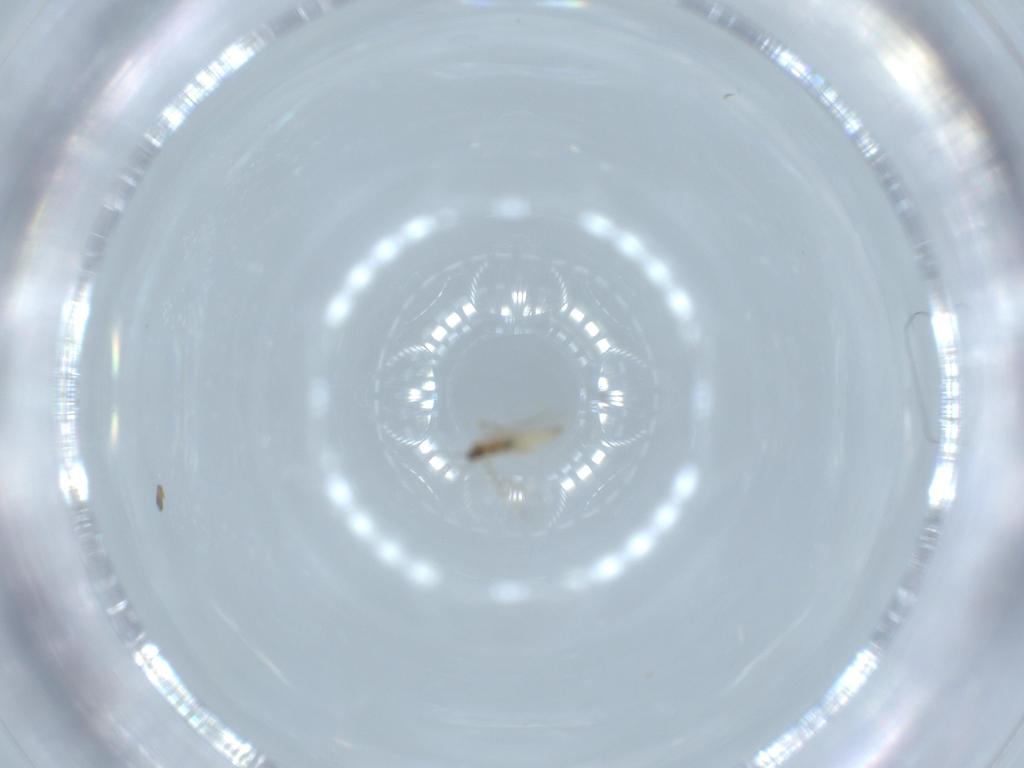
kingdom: Animalia
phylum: Arthropoda
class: Insecta
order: Diptera
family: Cecidomyiidae
